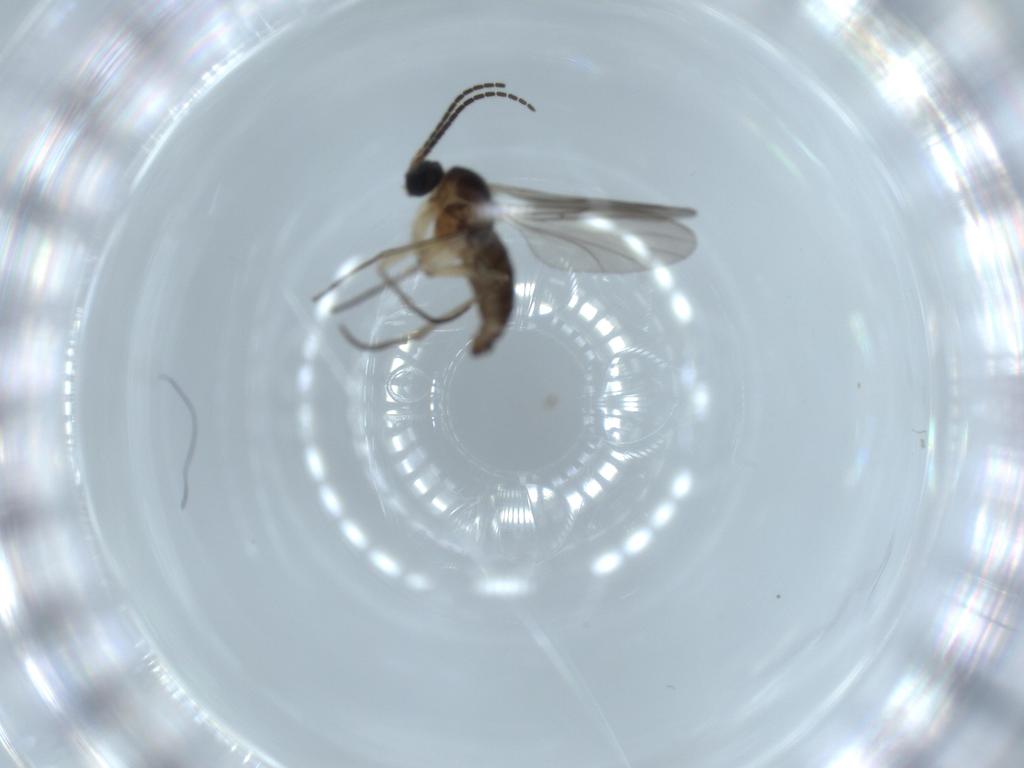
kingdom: Animalia
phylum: Arthropoda
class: Insecta
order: Diptera
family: Sciaridae
